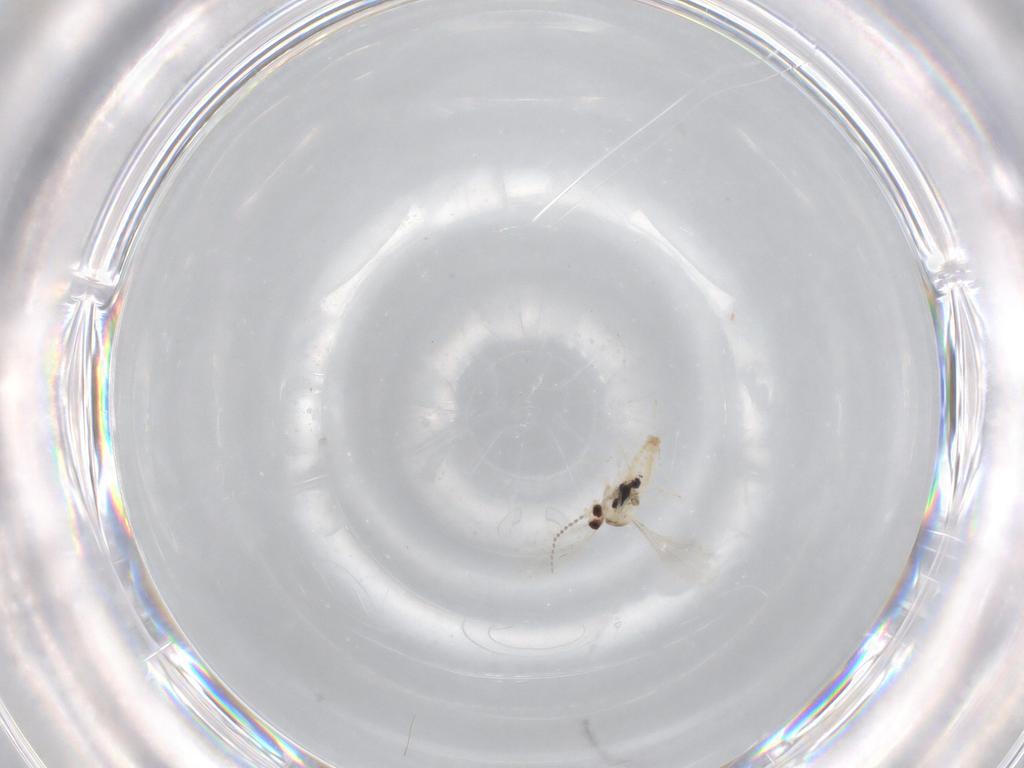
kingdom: Animalia
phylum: Arthropoda
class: Insecta
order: Diptera
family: Cecidomyiidae
